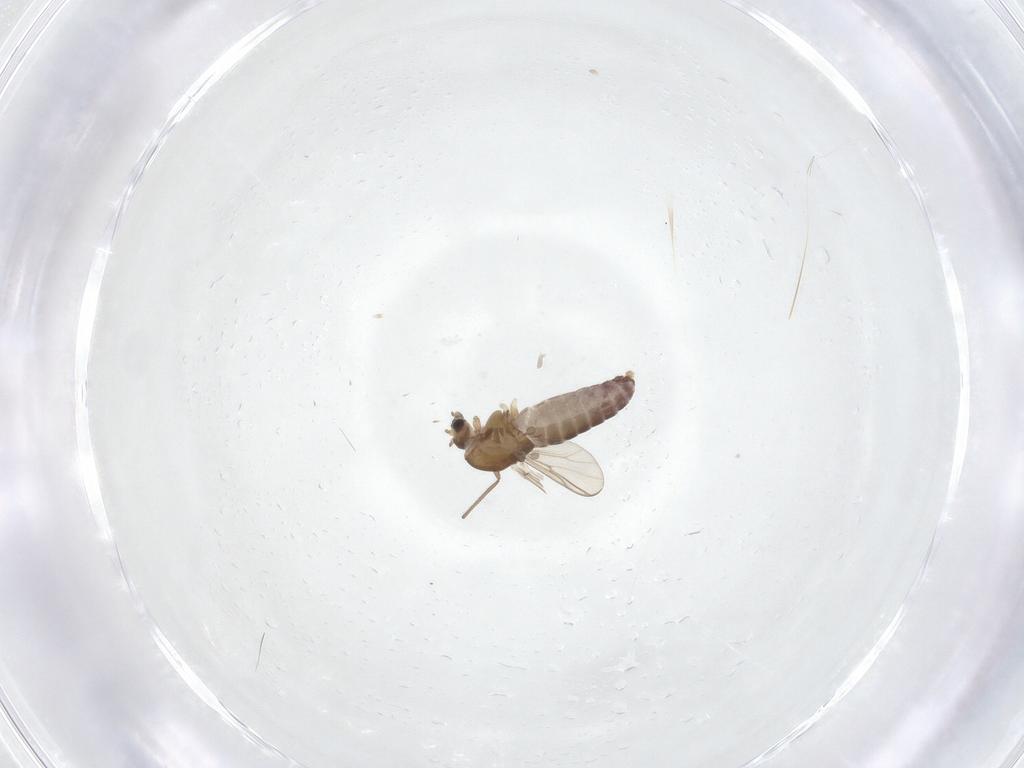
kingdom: Animalia
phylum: Arthropoda
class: Insecta
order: Diptera
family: Chironomidae
